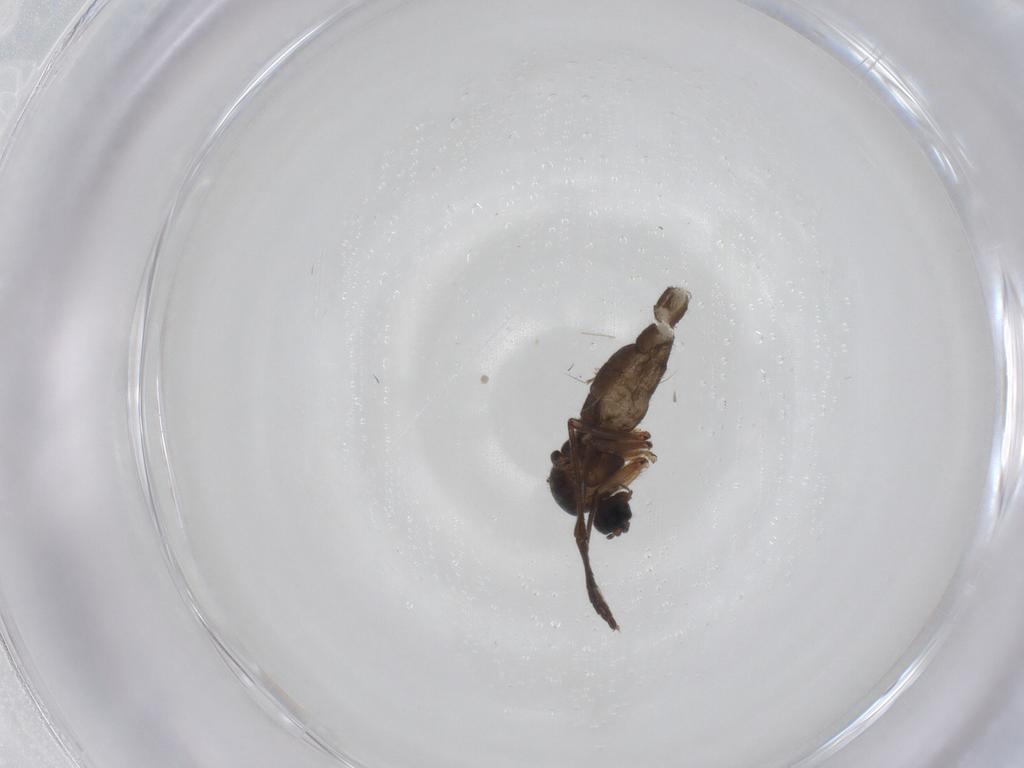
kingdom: Animalia
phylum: Arthropoda
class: Insecta
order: Diptera
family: Sciaridae
